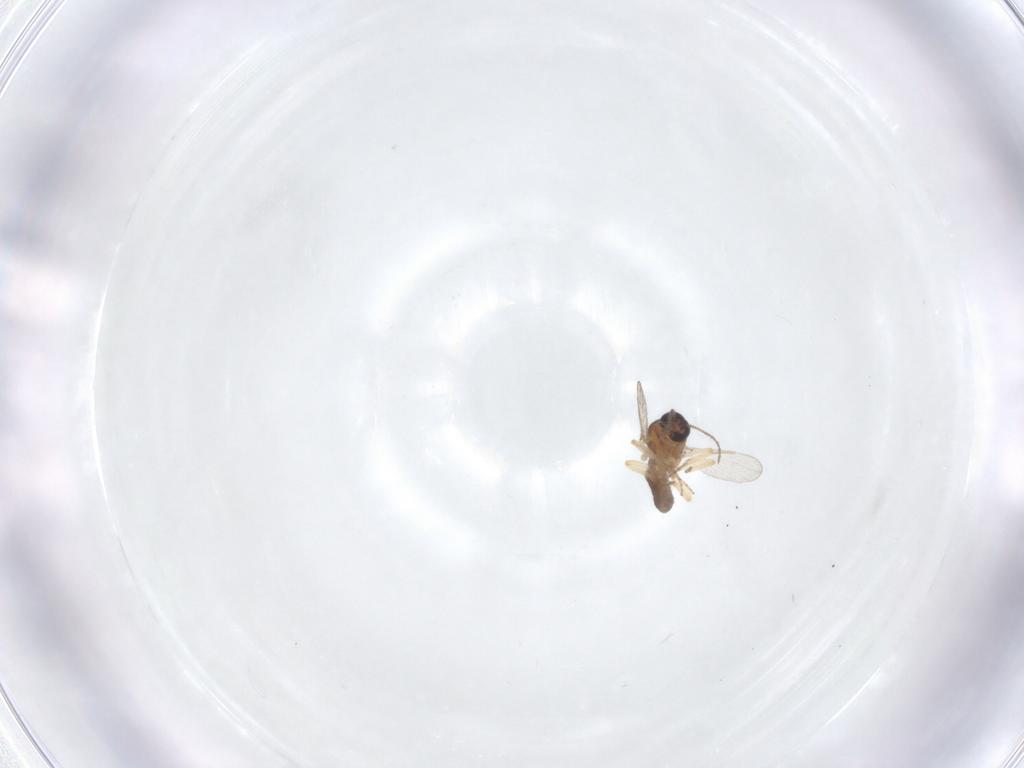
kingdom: Animalia
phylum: Arthropoda
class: Insecta
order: Diptera
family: Ceratopogonidae
